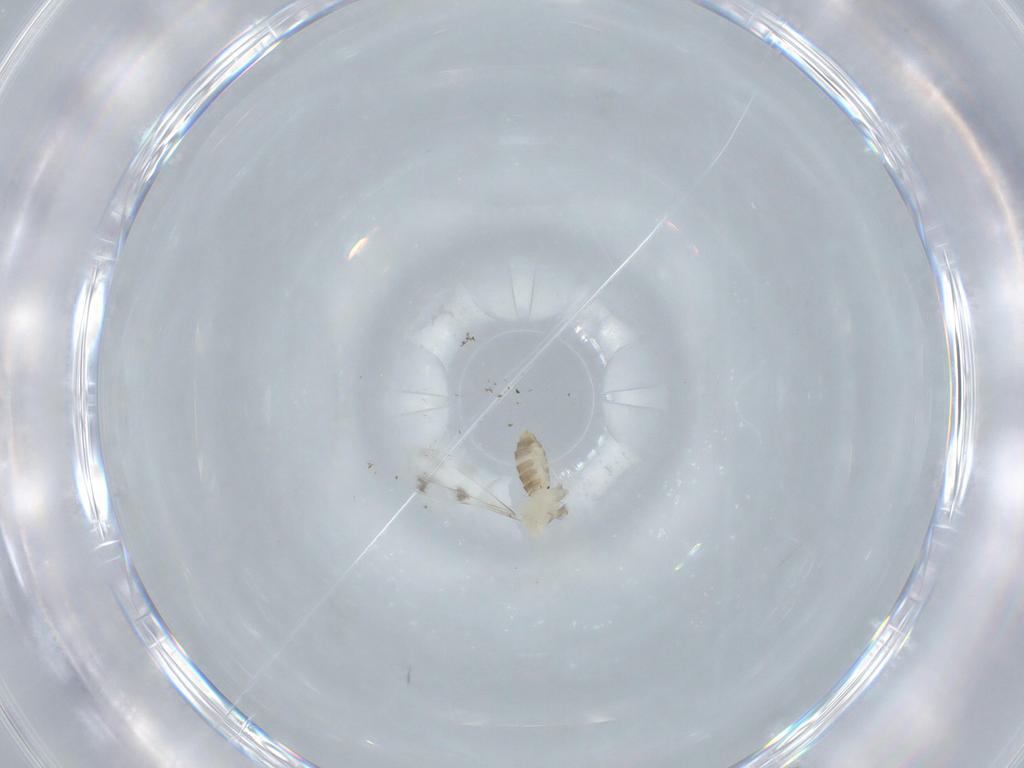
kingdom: Animalia
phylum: Arthropoda
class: Insecta
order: Diptera
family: Cecidomyiidae
